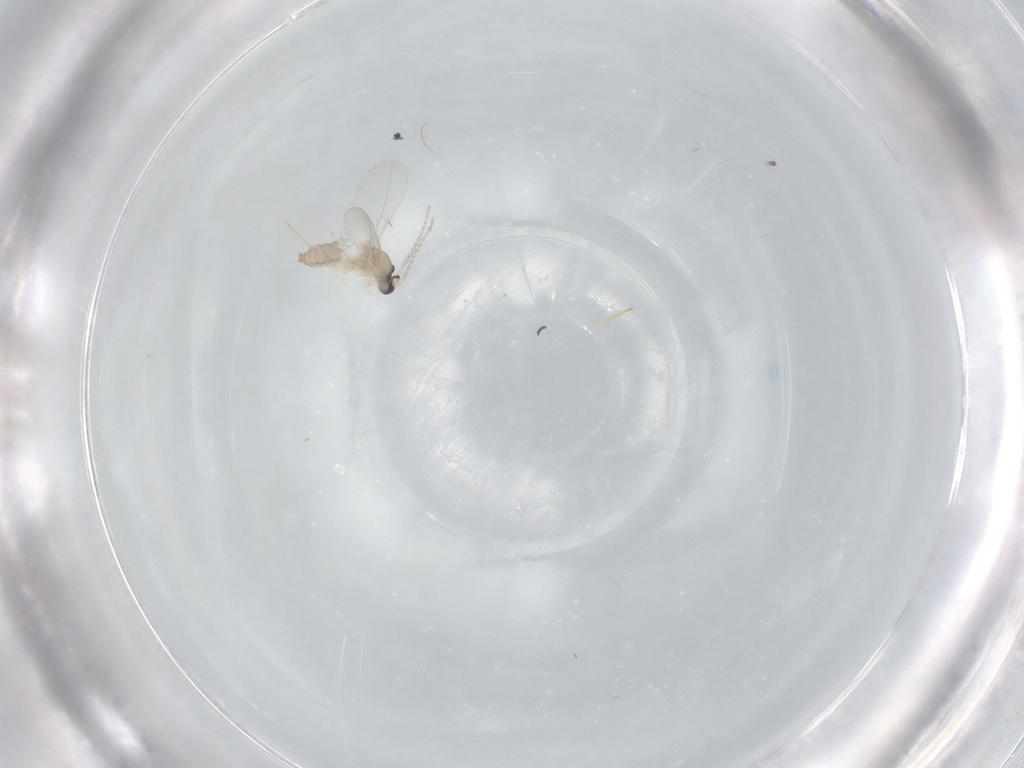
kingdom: Animalia
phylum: Arthropoda
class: Insecta
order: Diptera
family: Cecidomyiidae
